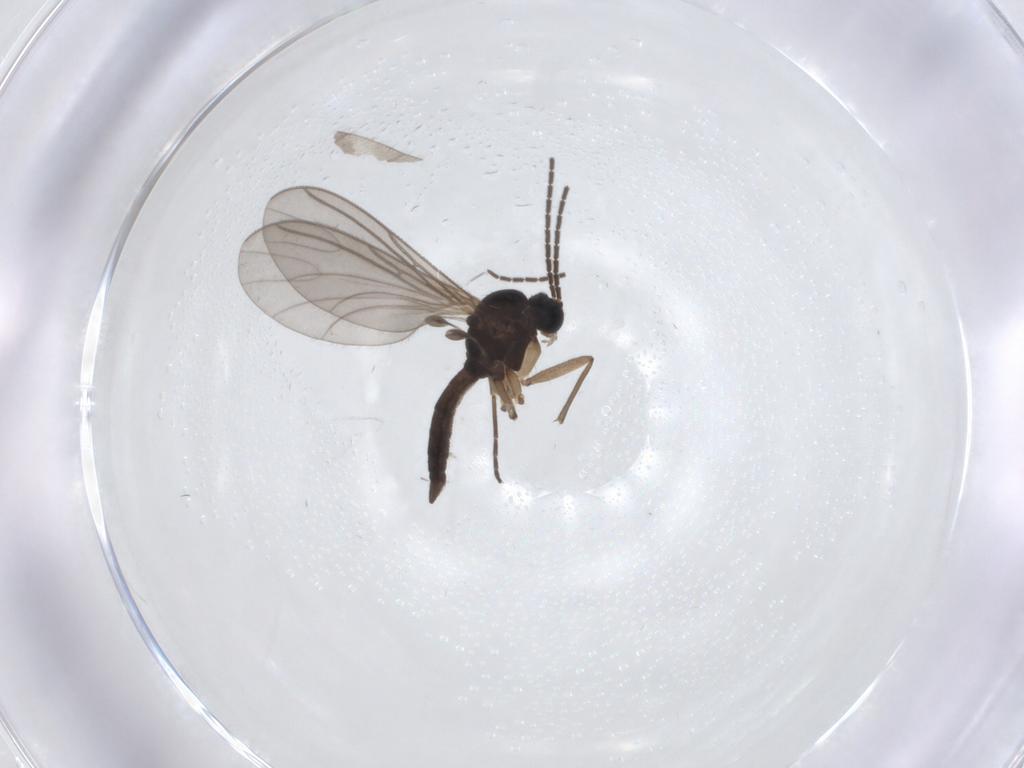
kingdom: Animalia
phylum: Arthropoda
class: Insecta
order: Diptera
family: Sciaridae
